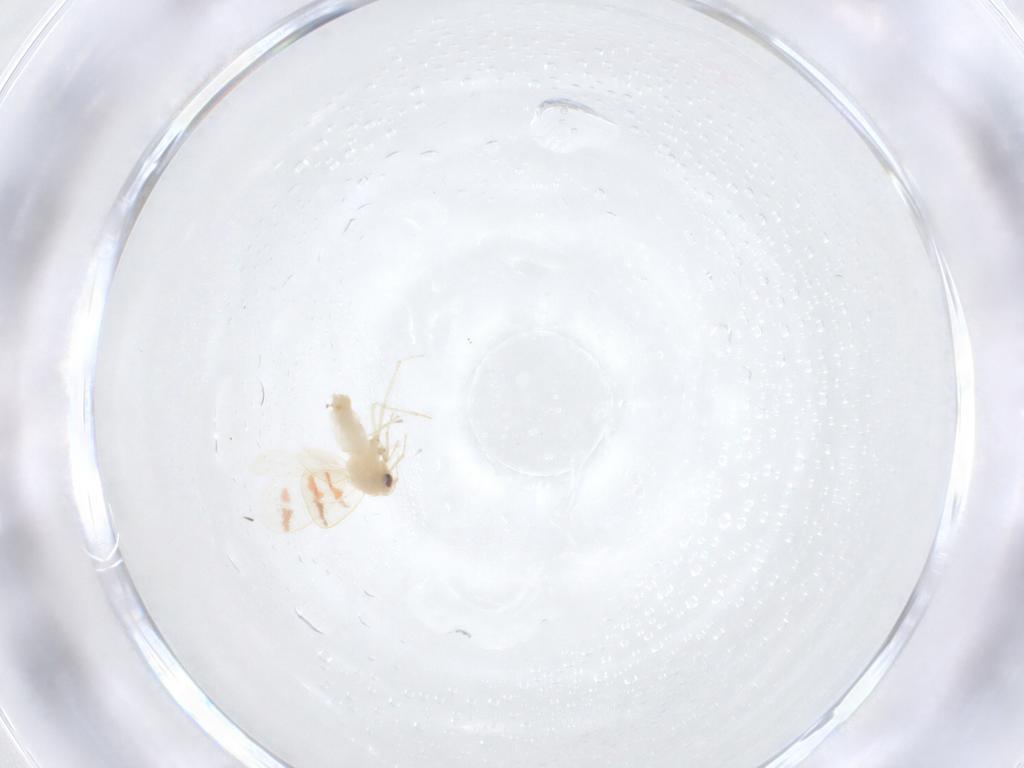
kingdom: Animalia
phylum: Arthropoda
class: Insecta
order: Hemiptera
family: Aleyrodidae
